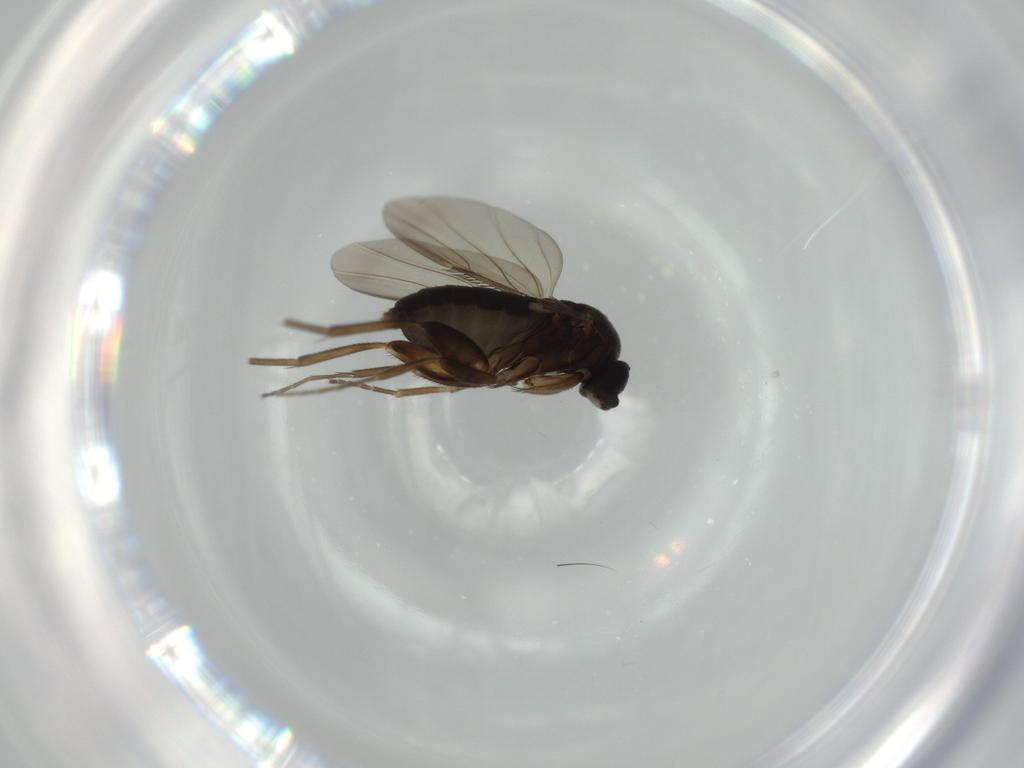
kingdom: Animalia
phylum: Arthropoda
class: Insecta
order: Diptera
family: Phoridae
